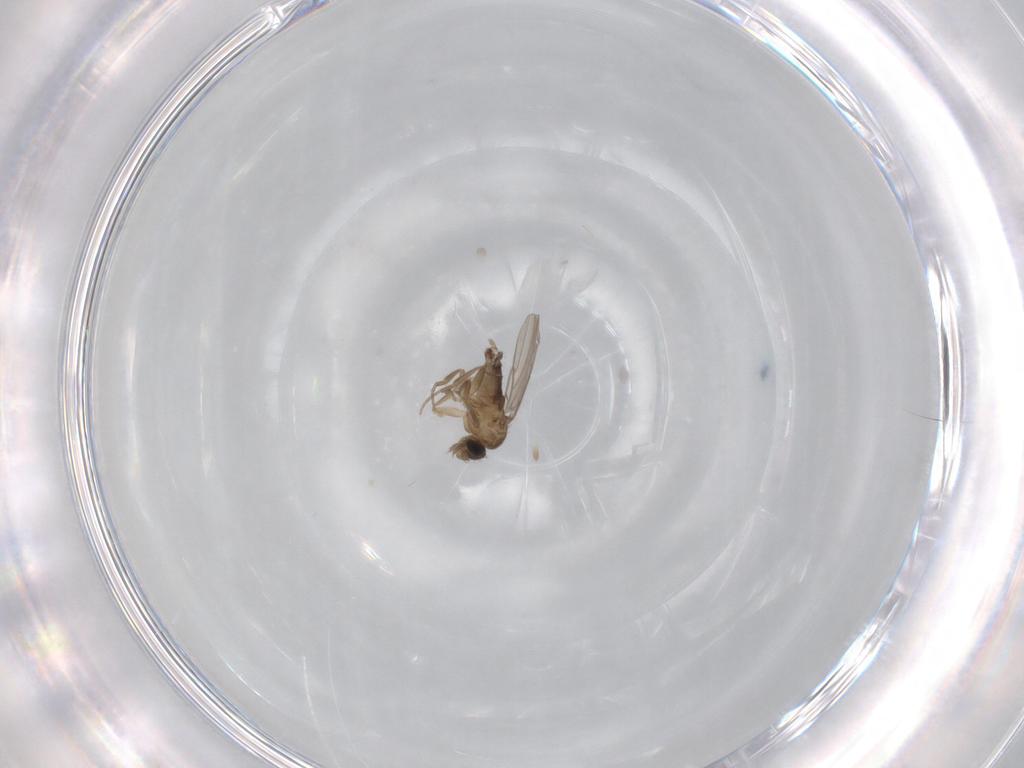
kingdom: Animalia
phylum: Arthropoda
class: Insecta
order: Diptera
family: Phoridae
